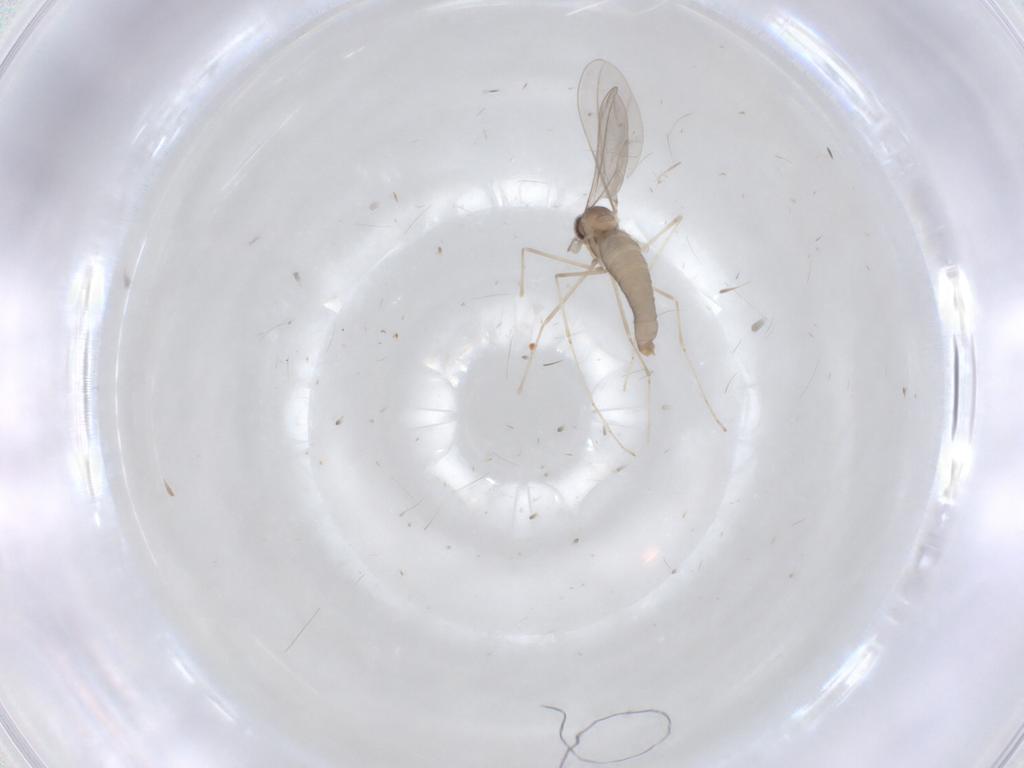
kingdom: Animalia
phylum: Arthropoda
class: Insecta
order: Diptera
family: Cecidomyiidae
